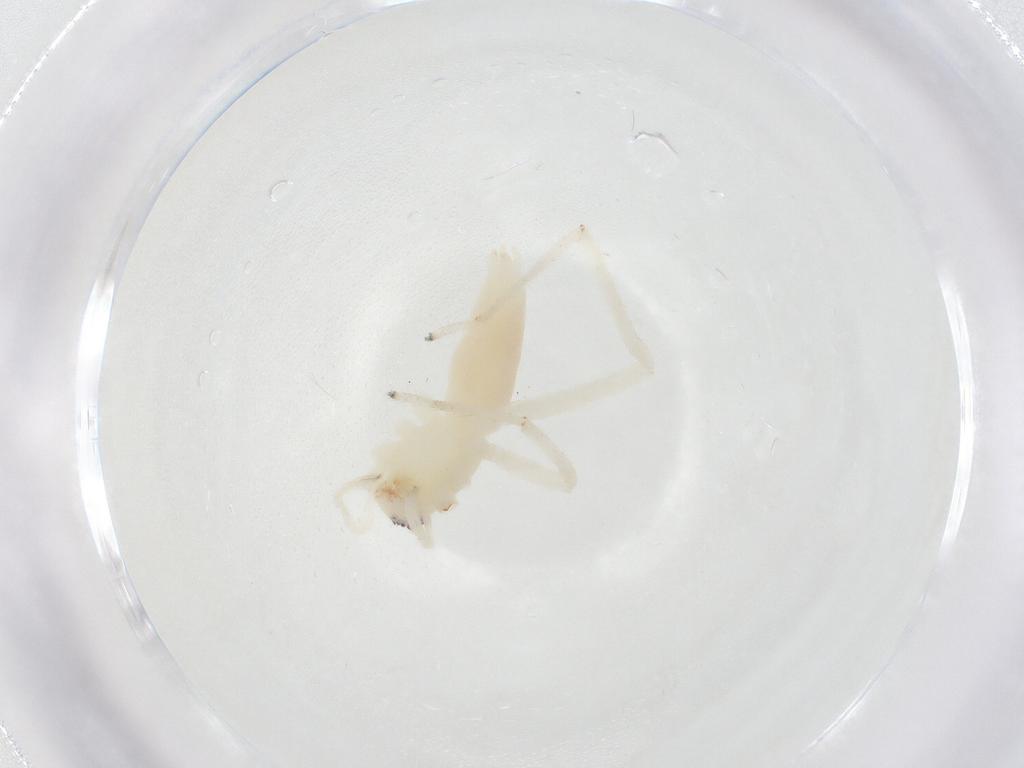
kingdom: Animalia
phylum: Arthropoda
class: Arachnida
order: Araneae
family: Anyphaenidae
